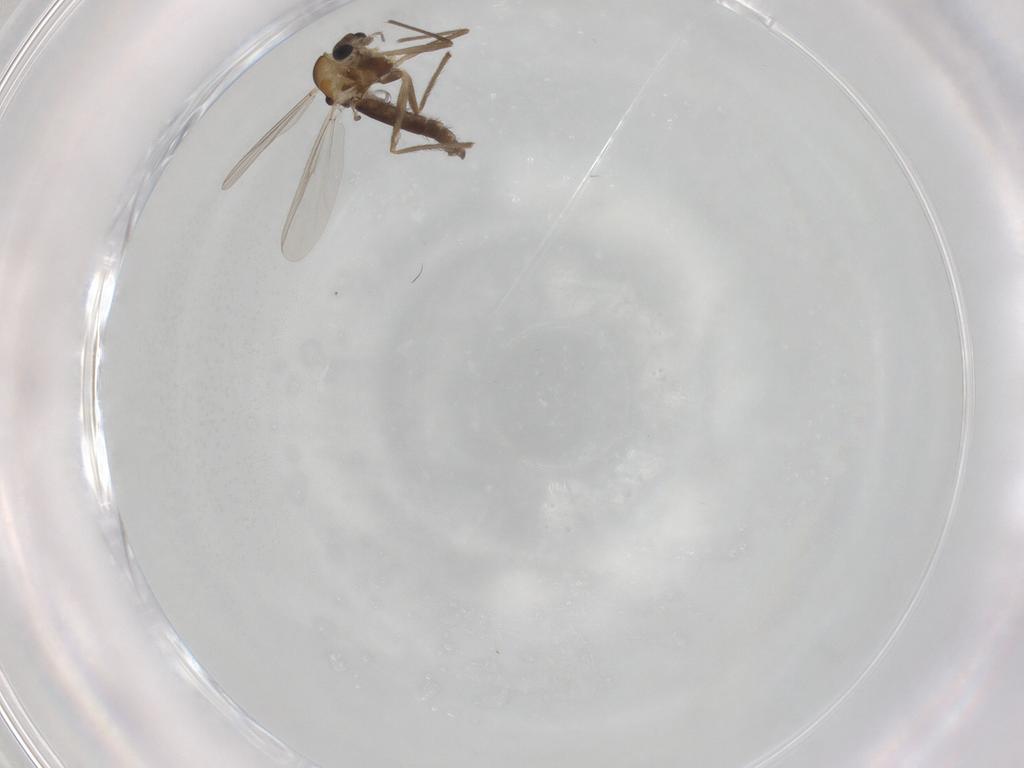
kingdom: Animalia
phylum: Arthropoda
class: Insecta
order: Diptera
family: Chironomidae
